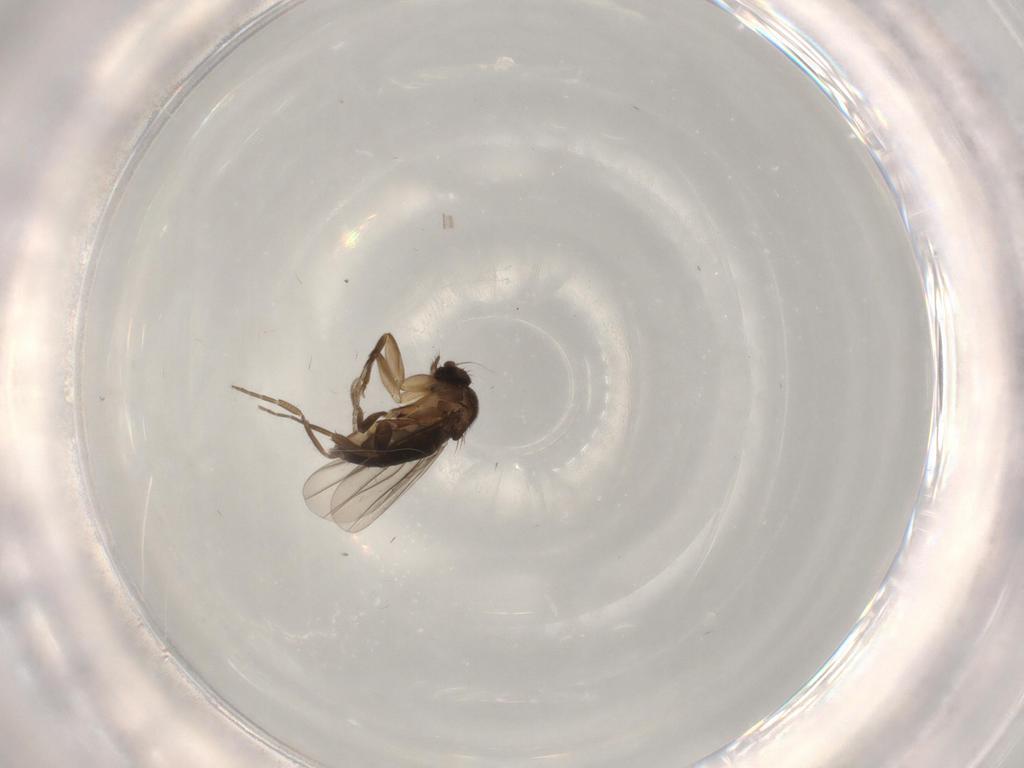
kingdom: Animalia
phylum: Arthropoda
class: Insecta
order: Diptera
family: Phoridae
